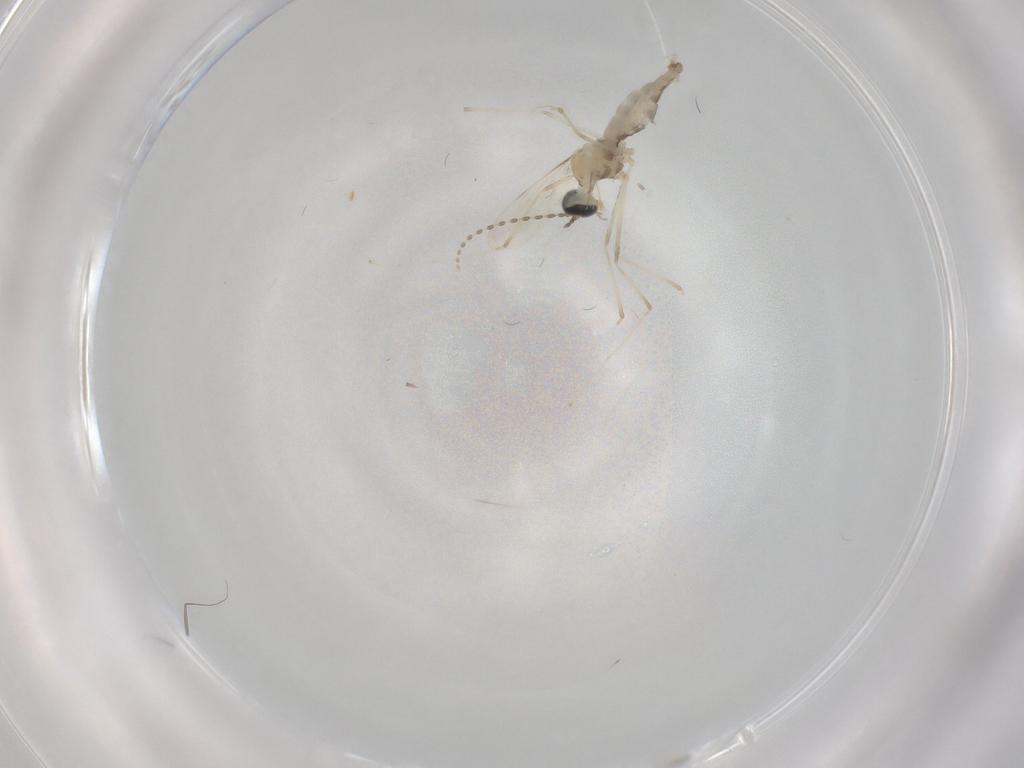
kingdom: Animalia
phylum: Arthropoda
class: Insecta
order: Diptera
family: Cecidomyiidae
